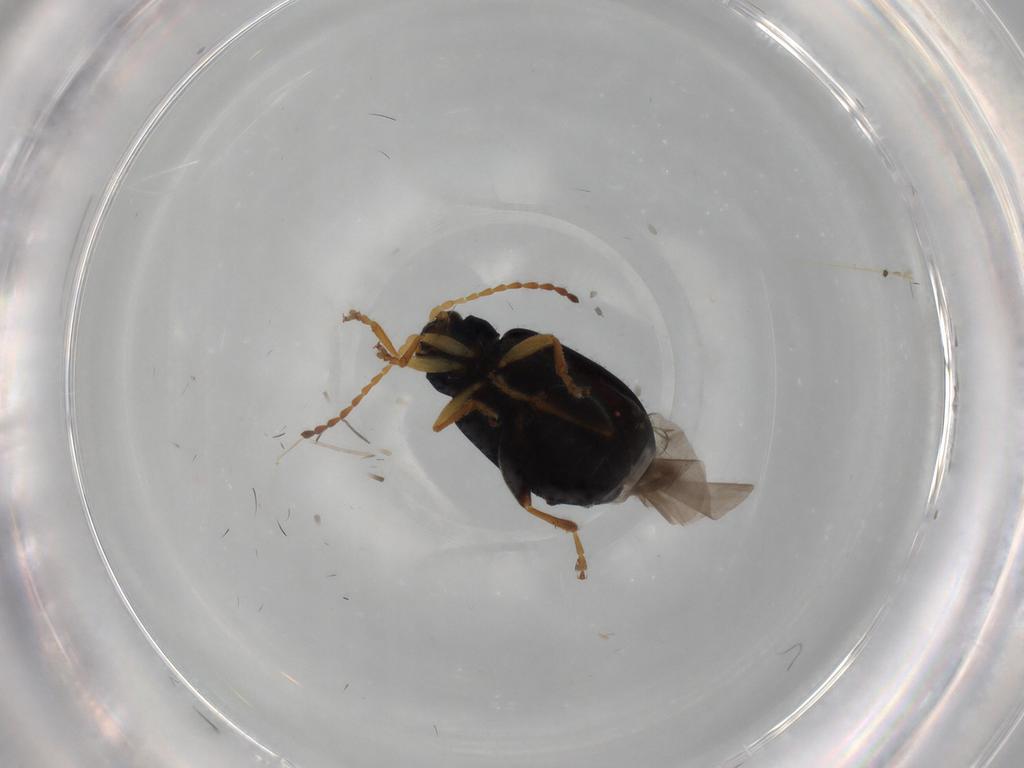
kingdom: Animalia
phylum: Arthropoda
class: Insecta
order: Coleoptera
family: Chrysomelidae
